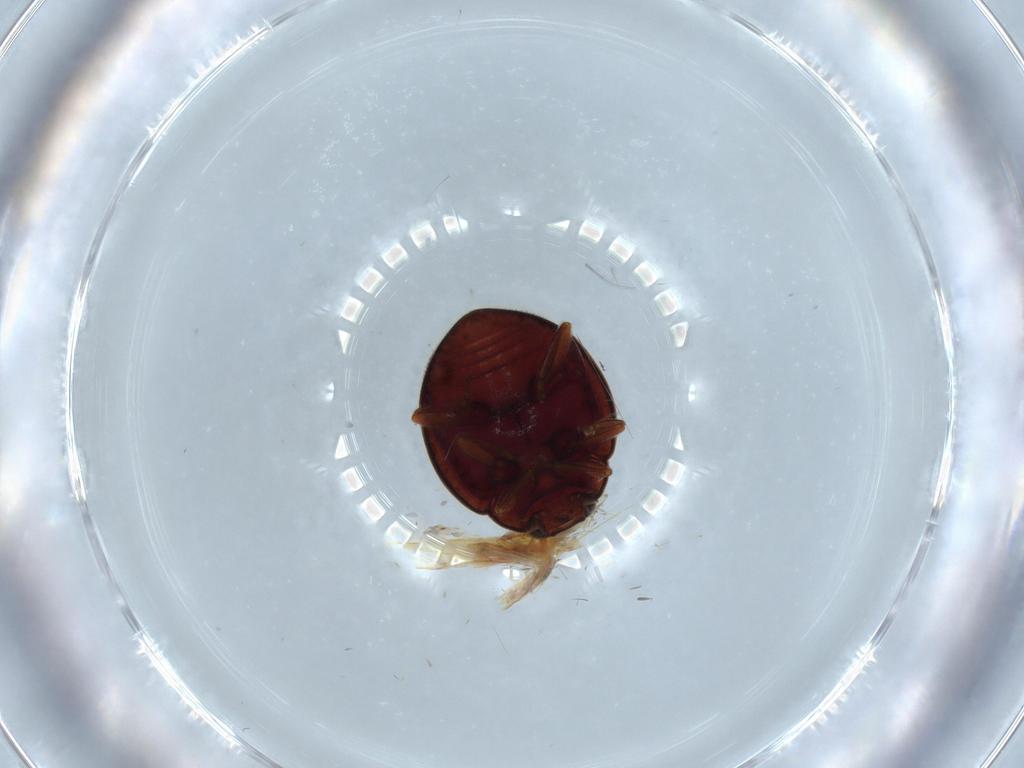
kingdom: Animalia
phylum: Arthropoda
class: Insecta
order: Coleoptera
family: Coccinellidae
